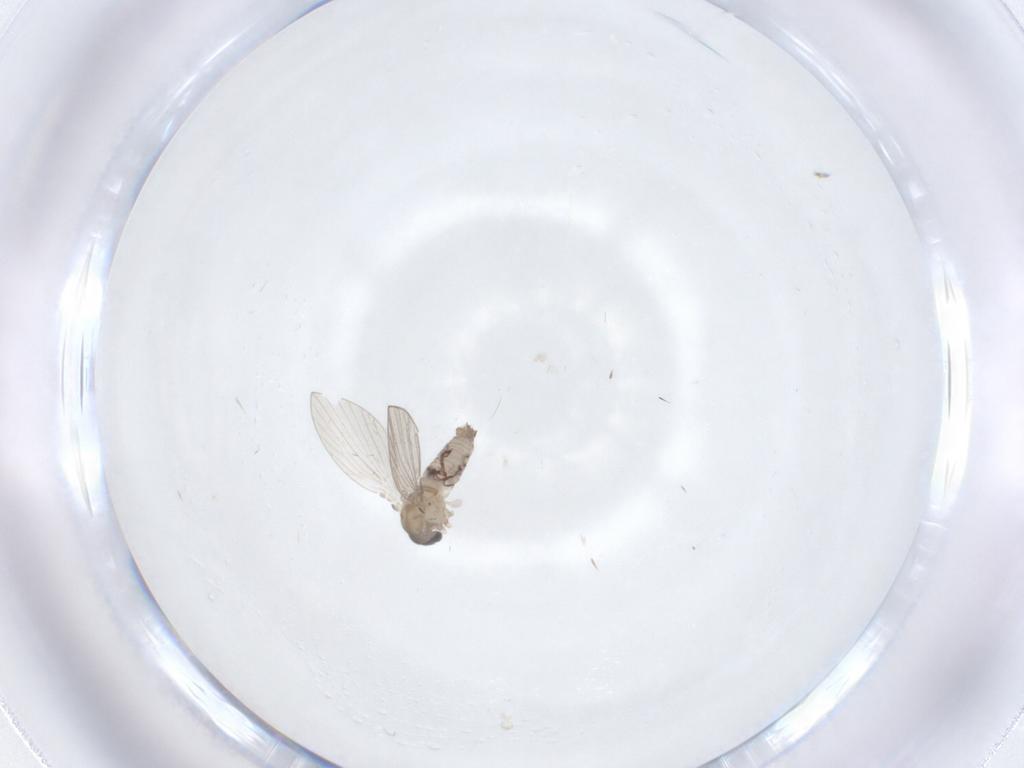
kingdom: Animalia
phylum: Arthropoda
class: Insecta
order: Diptera
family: Psychodidae
